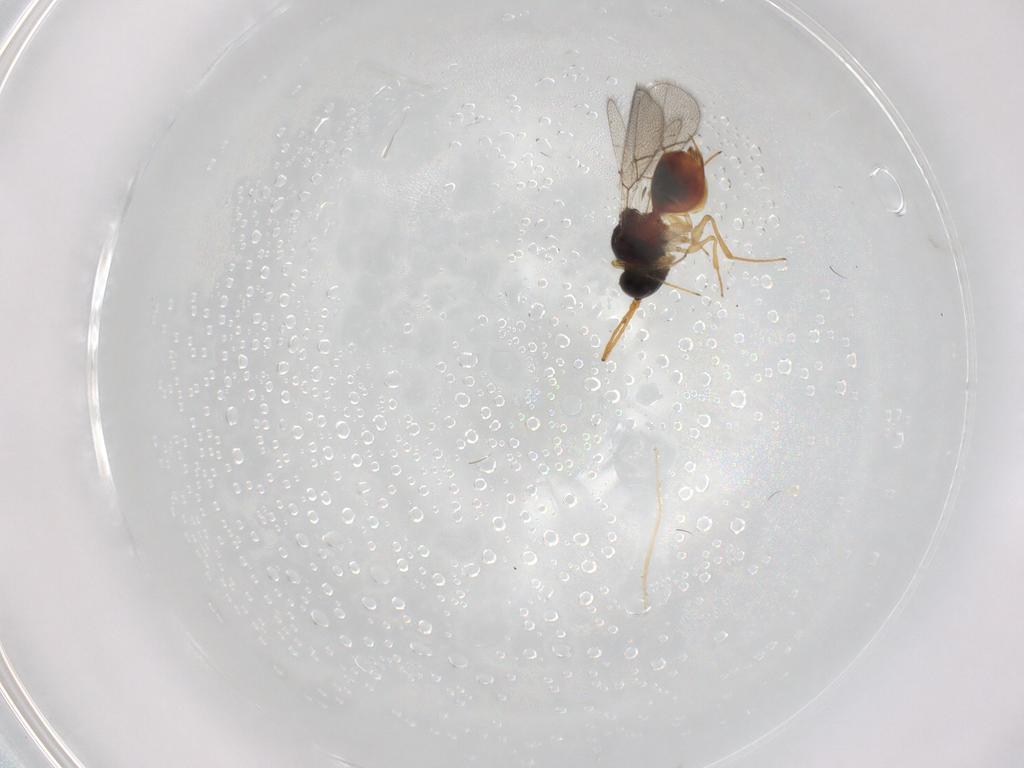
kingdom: Animalia
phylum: Arthropoda
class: Insecta
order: Hymenoptera
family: Figitidae
